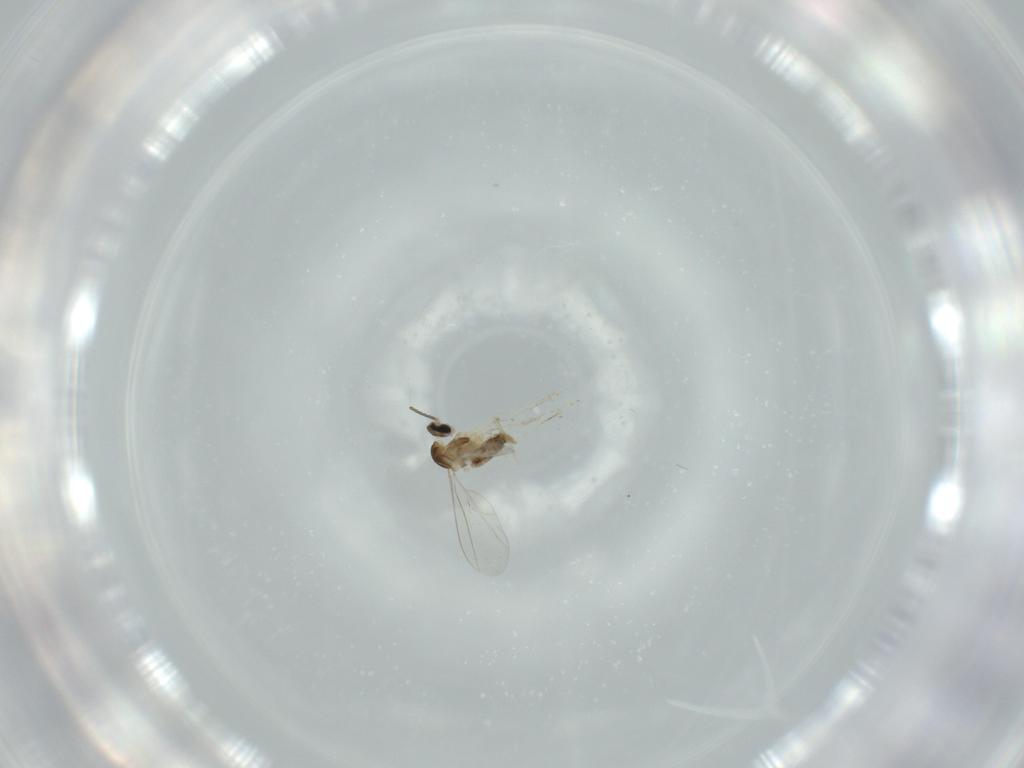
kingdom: Animalia
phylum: Arthropoda
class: Insecta
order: Diptera
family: Cecidomyiidae
